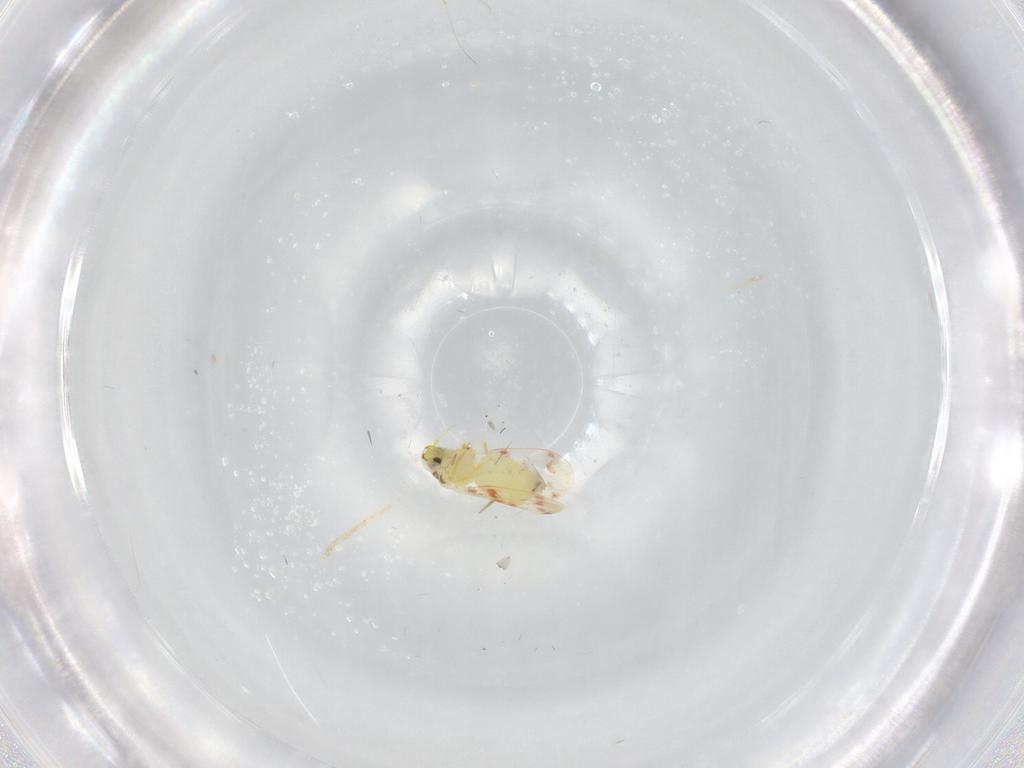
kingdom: Animalia
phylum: Arthropoda
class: Insecta
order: Hemiptera
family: Aleyrodidae
